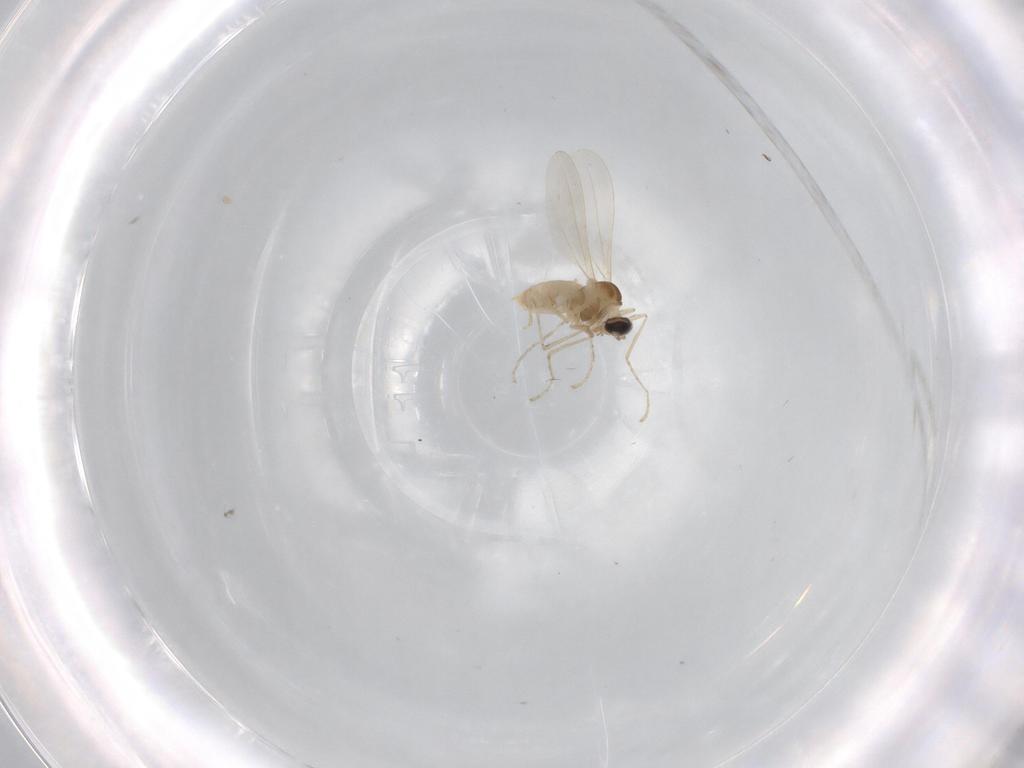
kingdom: Animalia
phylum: Arthropoda
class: Insecta
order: Diptera
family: Cecidomyiidae
